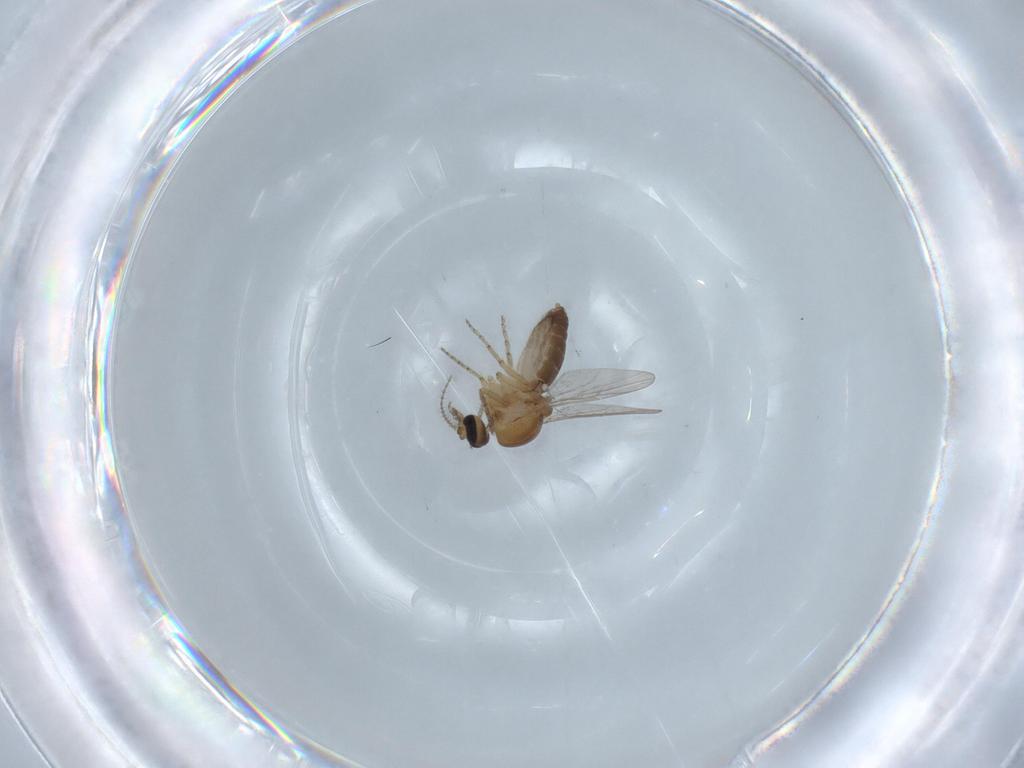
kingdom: Animalia
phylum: Arthropoda
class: Insecta
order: Diptera
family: Ceratopogonidae
